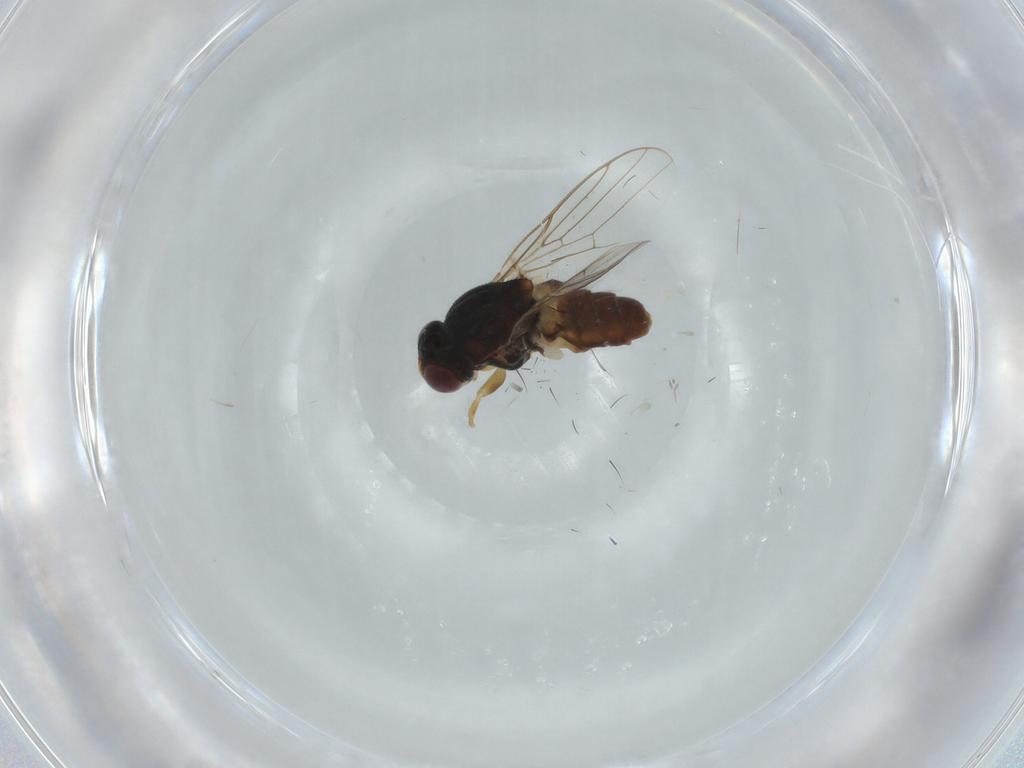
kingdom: Animalia
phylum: Arthropoda
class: Insecta
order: Diptera
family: Chloropidae
